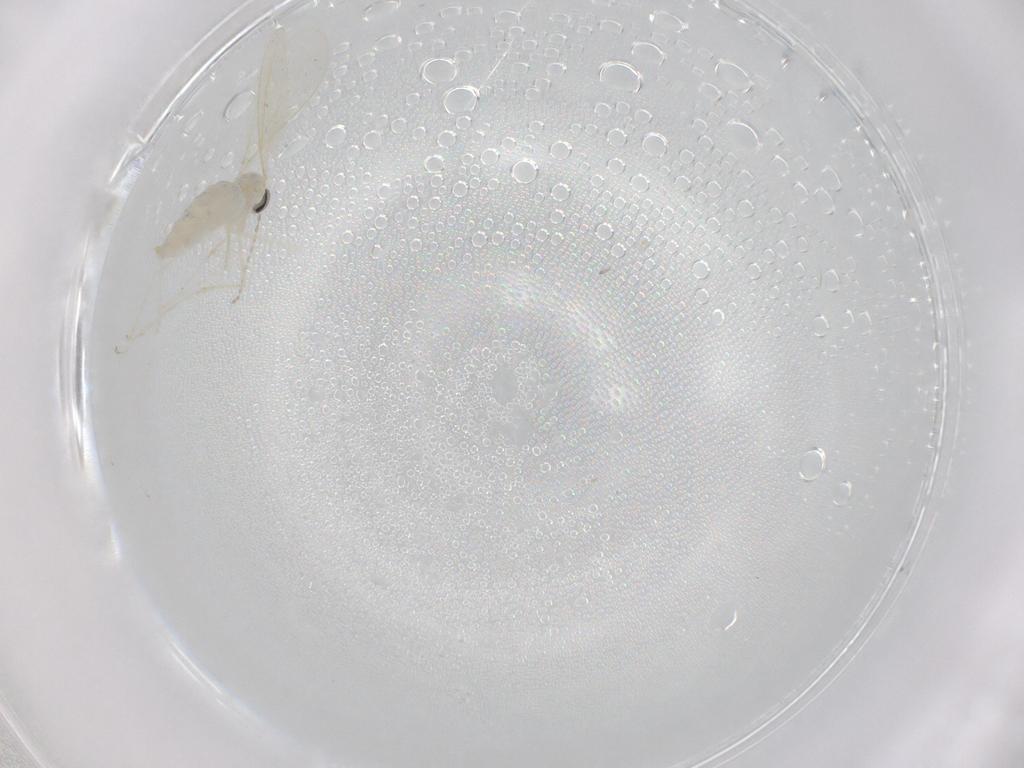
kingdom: Animalia
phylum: Arthropoda
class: Insecta
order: Diptera
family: Cecidomyiidae
